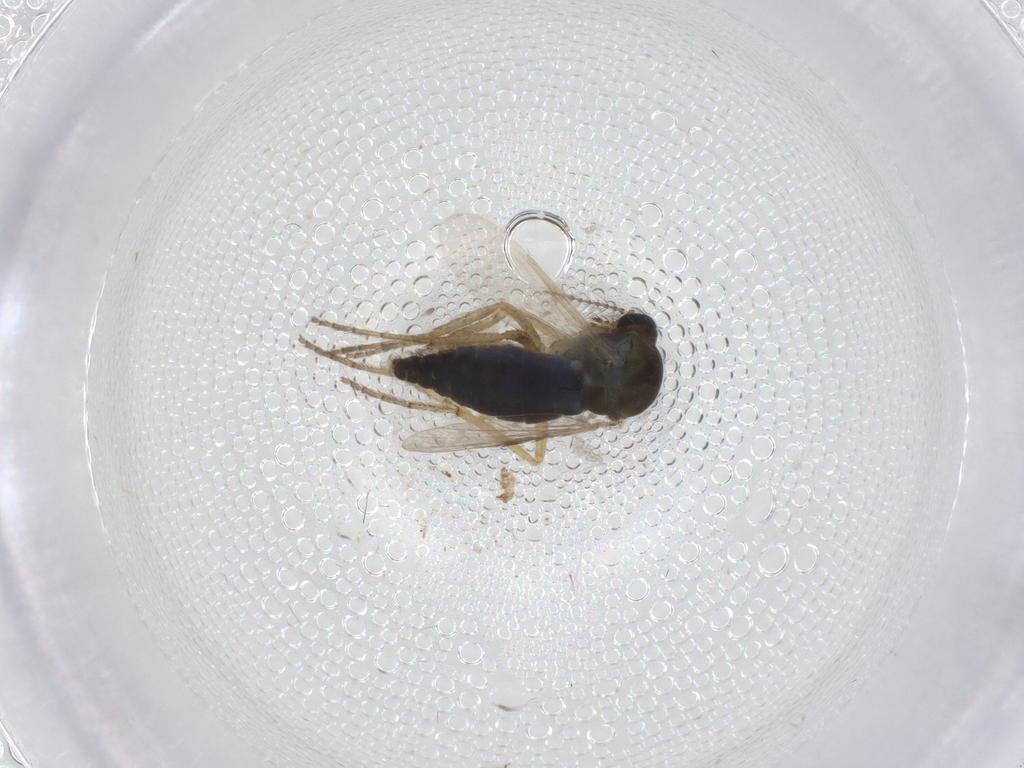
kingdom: Animalia
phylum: Arthropoda
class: Insecta
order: Diptera
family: Ceratopogonidae
